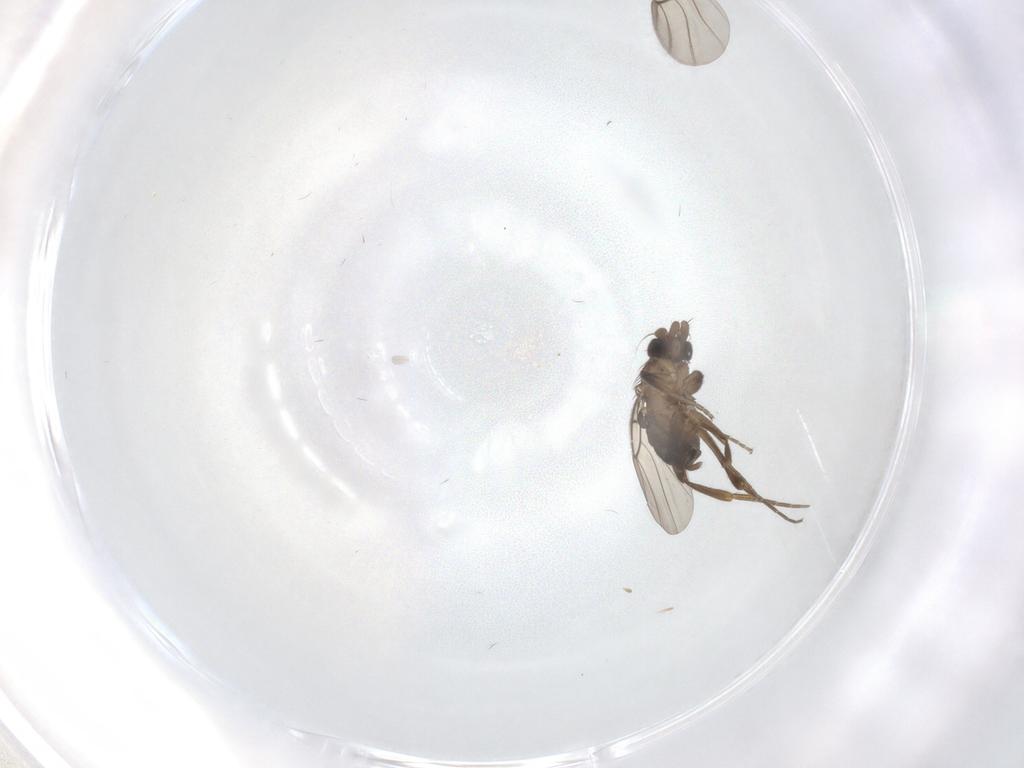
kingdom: Animalia
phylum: Arthropoda
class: Insecta
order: Diptera
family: Phoridae
